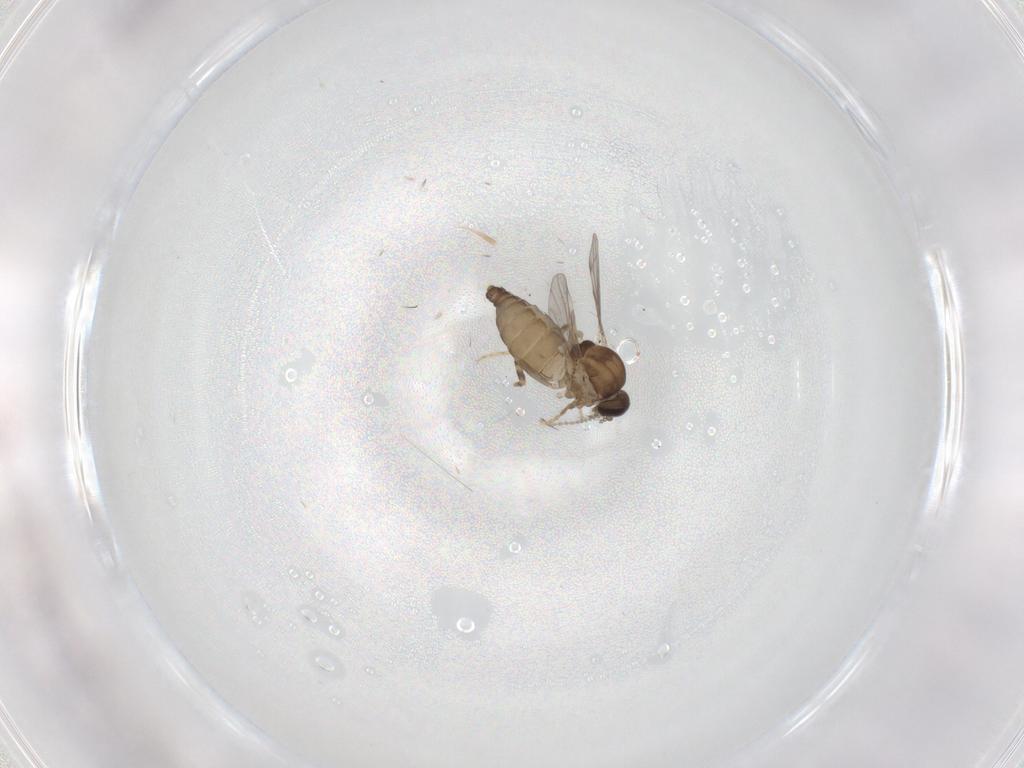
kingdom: Animalia
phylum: Arthropoda
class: Insecta
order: Diptera
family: Ceratopogonidae
